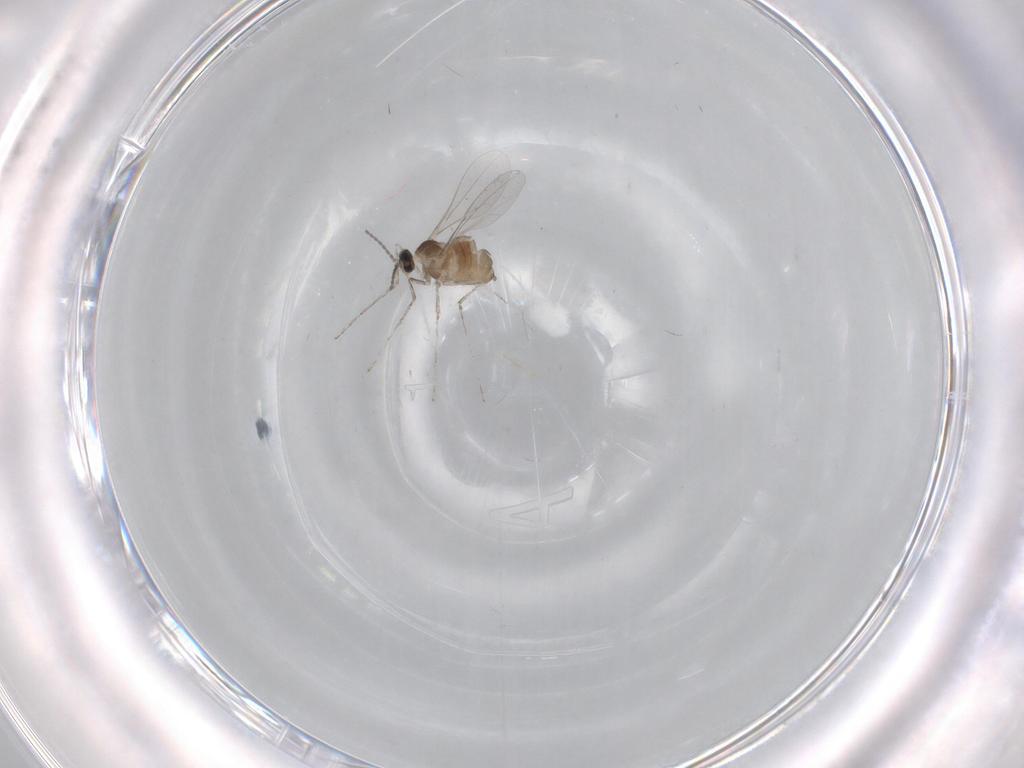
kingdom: Animalia
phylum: Arthropoda
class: Insecta
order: Diptera
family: Cecidomyiidae
